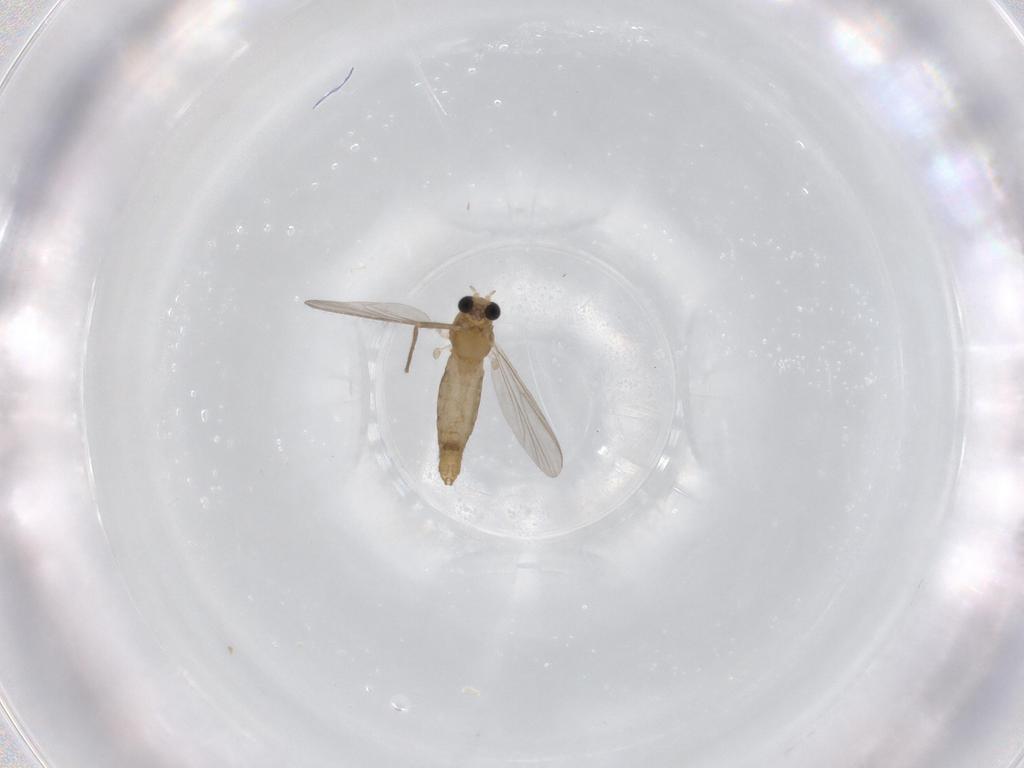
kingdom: Animalia
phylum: Arthropoda
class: Insecta
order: Diptera
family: Chironomidae
